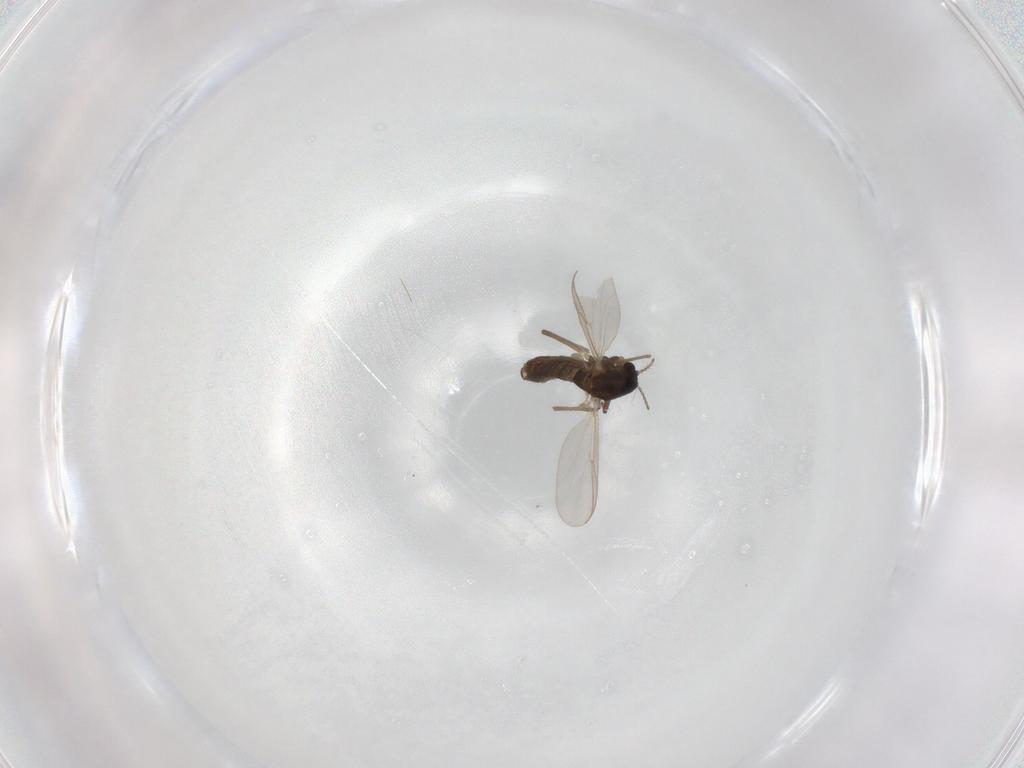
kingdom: Animalia
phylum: Arthropoda
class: Insecta
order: Diptera
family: Chironomidae
